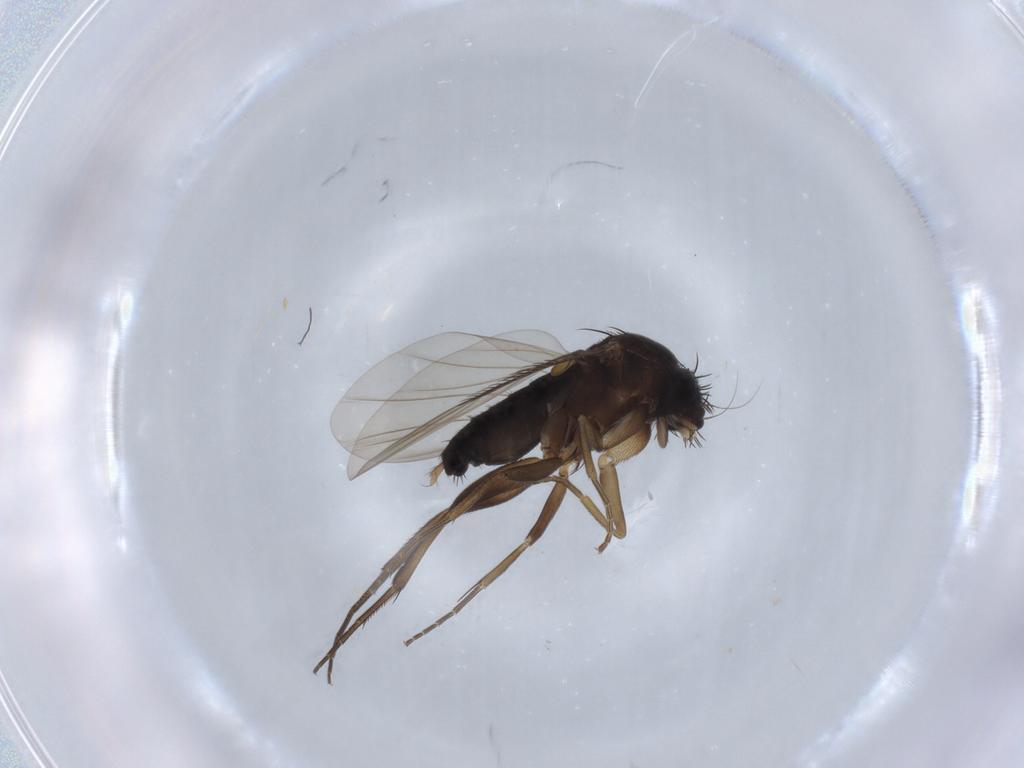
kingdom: Animalia
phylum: Arthropoda
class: Insecta
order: Diptera
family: Phoridae
